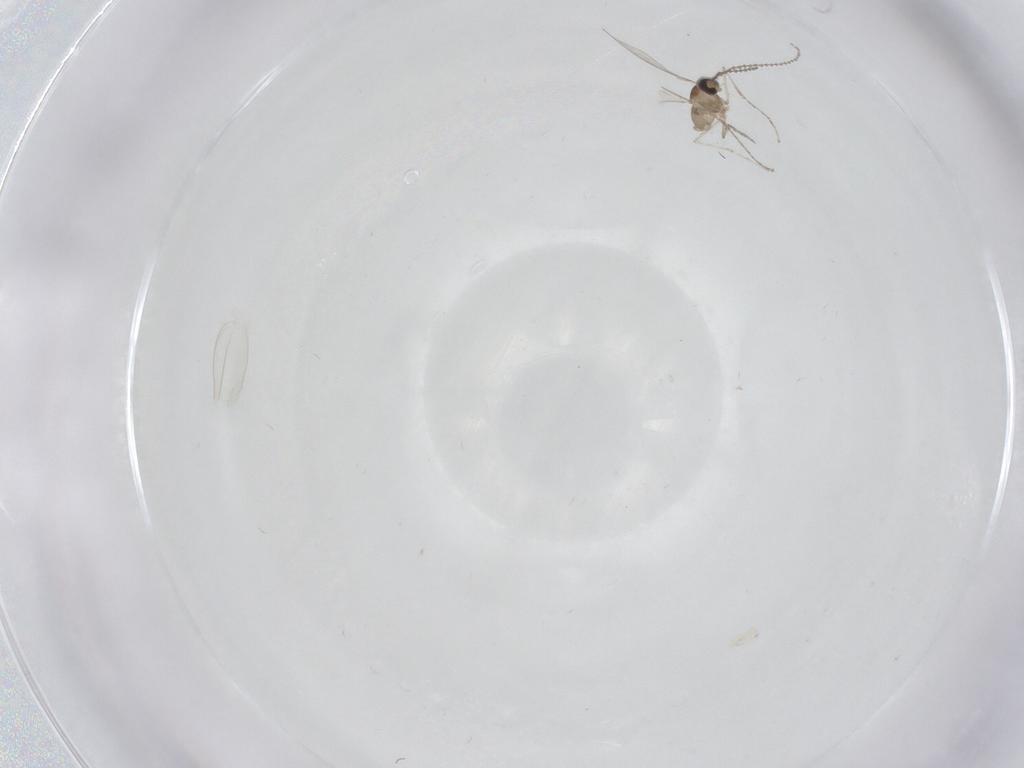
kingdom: Animalia
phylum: Arthropoda
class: Insecta
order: Diptera
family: Cecidomyiidae
